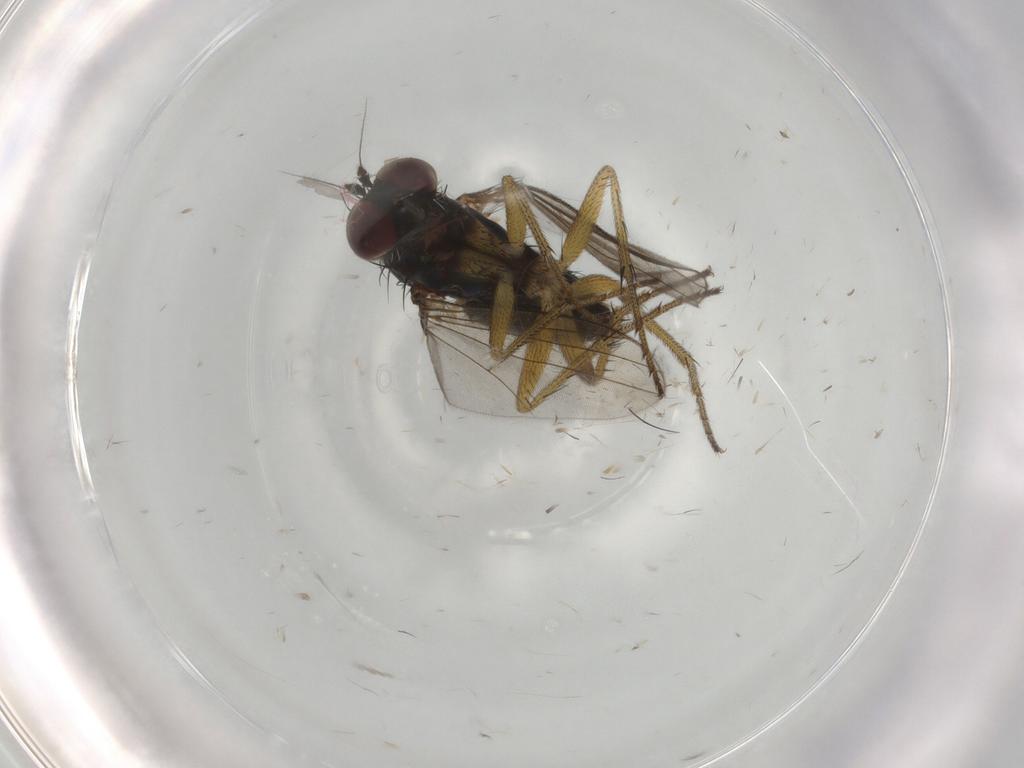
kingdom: Animalia
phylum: Arthropoda
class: Insecta
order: Diptera
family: Dolichopodidae
